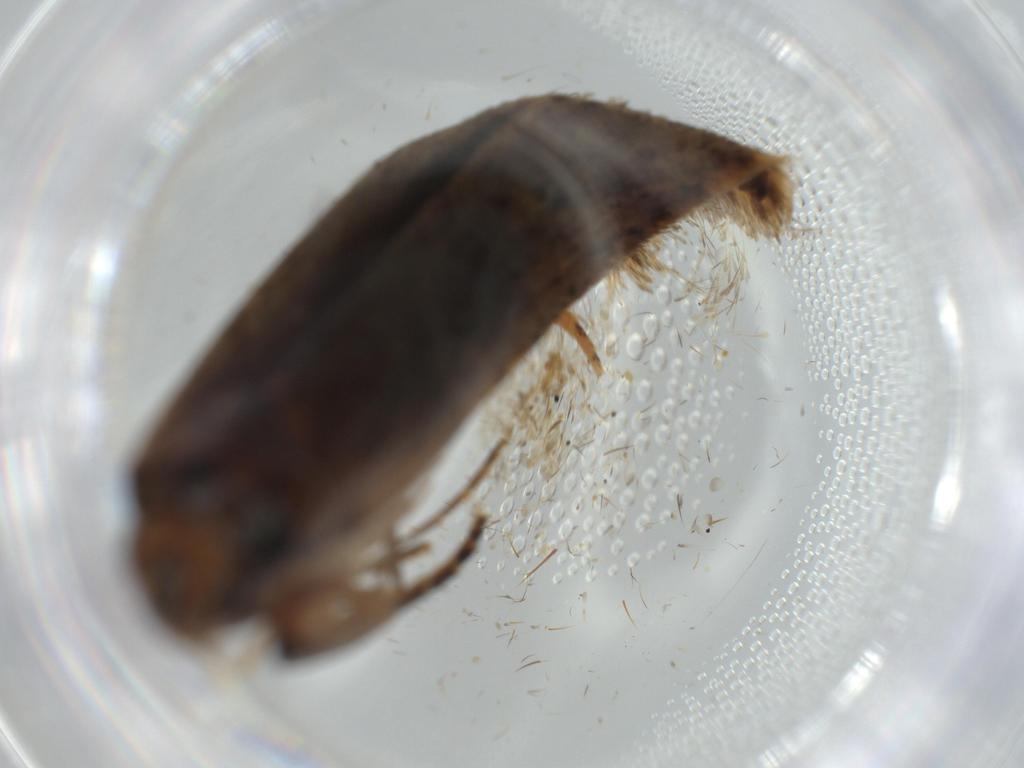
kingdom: Animalia
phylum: Arthropoda
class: Insecta
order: Lepidoptera
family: Gelechiidae
